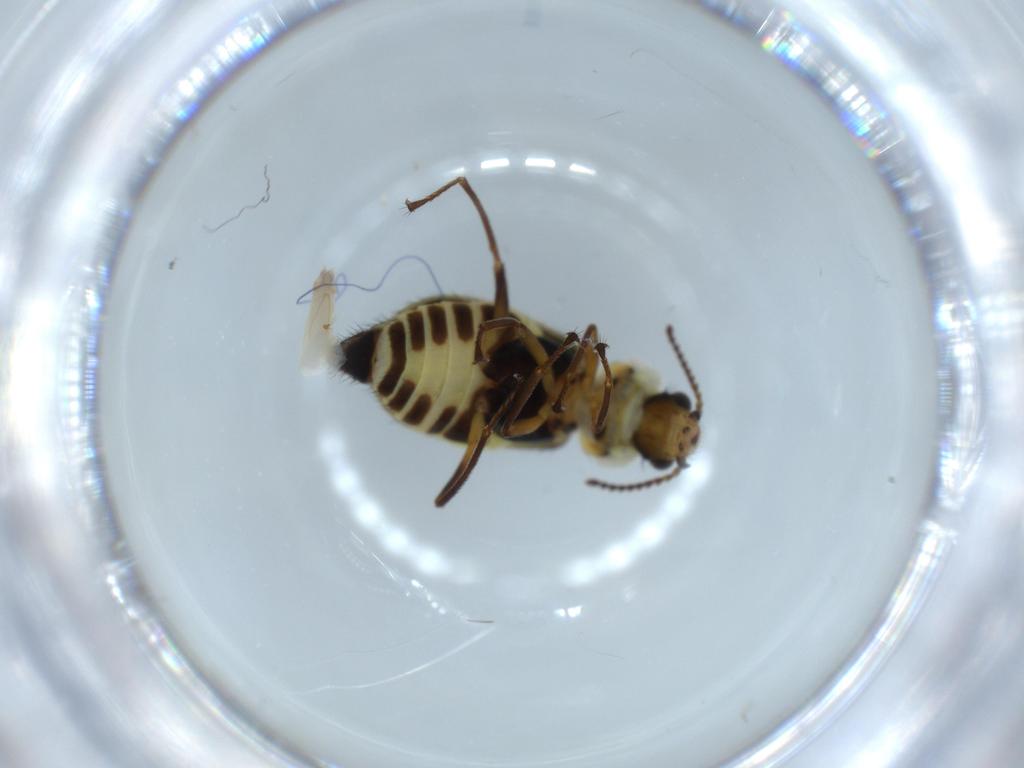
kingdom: Animalia
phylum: Arthropoda
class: Insecta
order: Coleoptera
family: Melyridae
